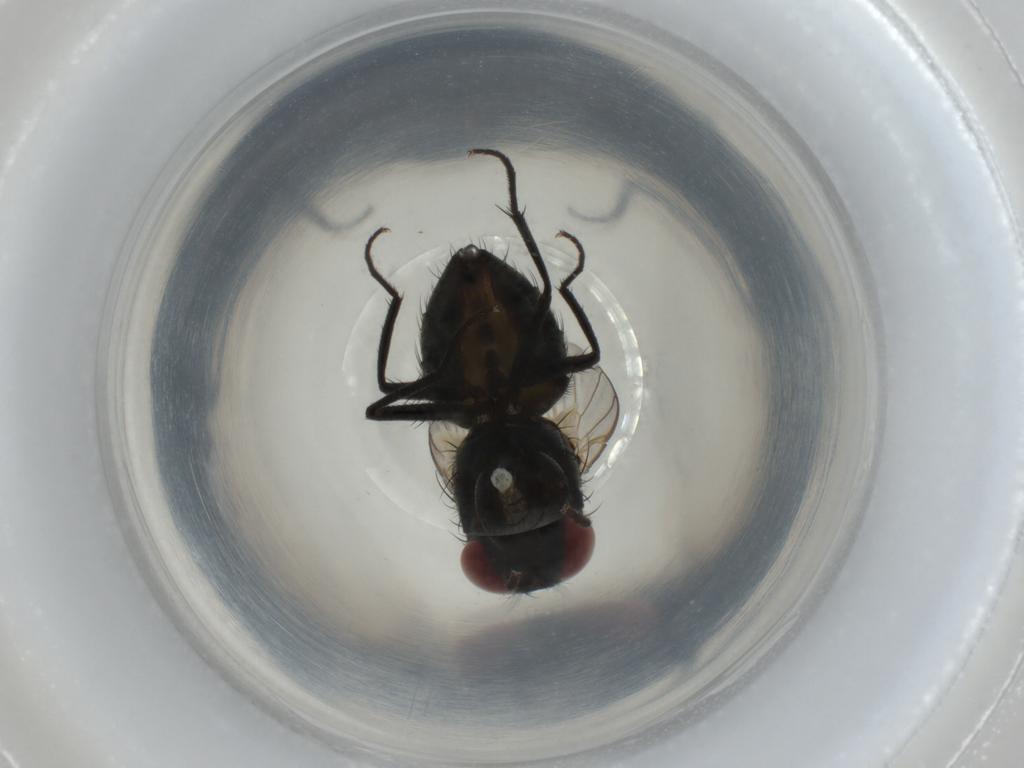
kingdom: Animalia
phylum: Arthropoda
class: Insecta
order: Diptera
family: Muscidae
